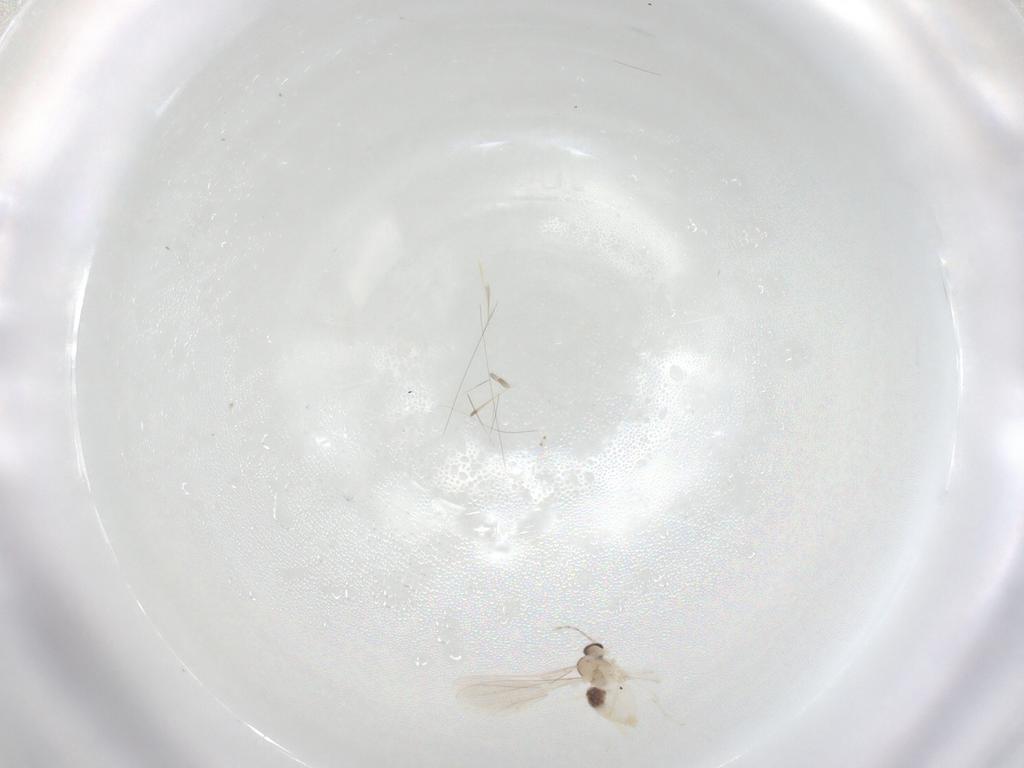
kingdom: Animalia
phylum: Arthropoda
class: Insecta
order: Diptera
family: Cecidomyiidae
